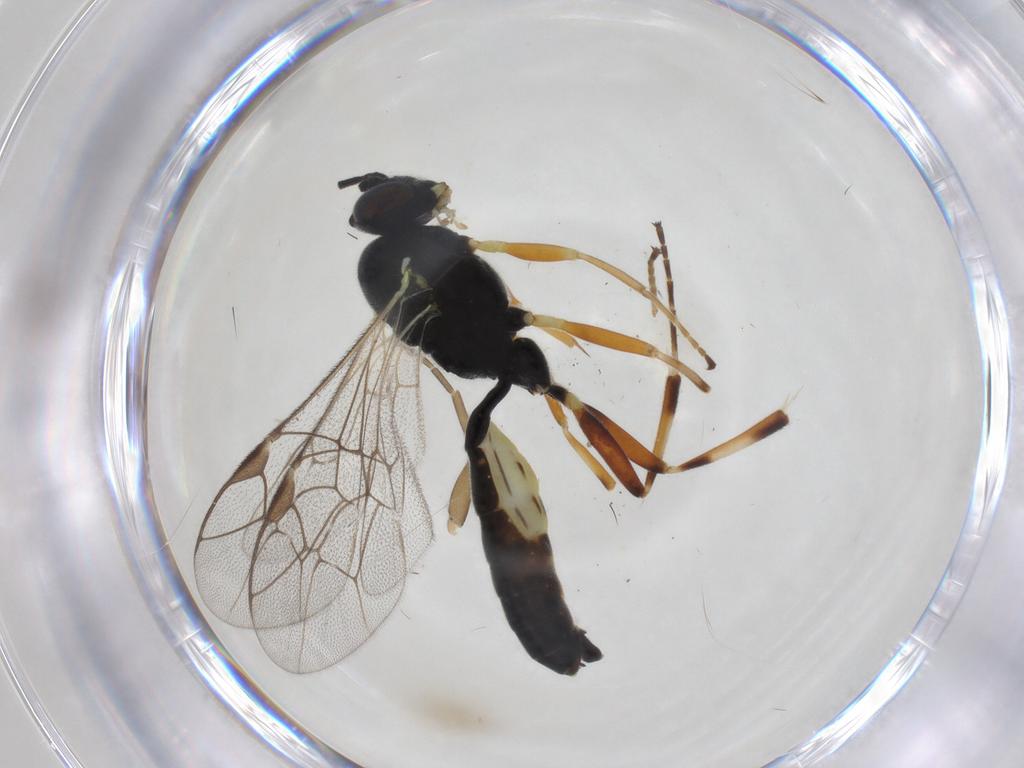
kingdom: Animalia
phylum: Arthropoda
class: Insecta
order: Hymenoptera
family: Ichneumonidae
